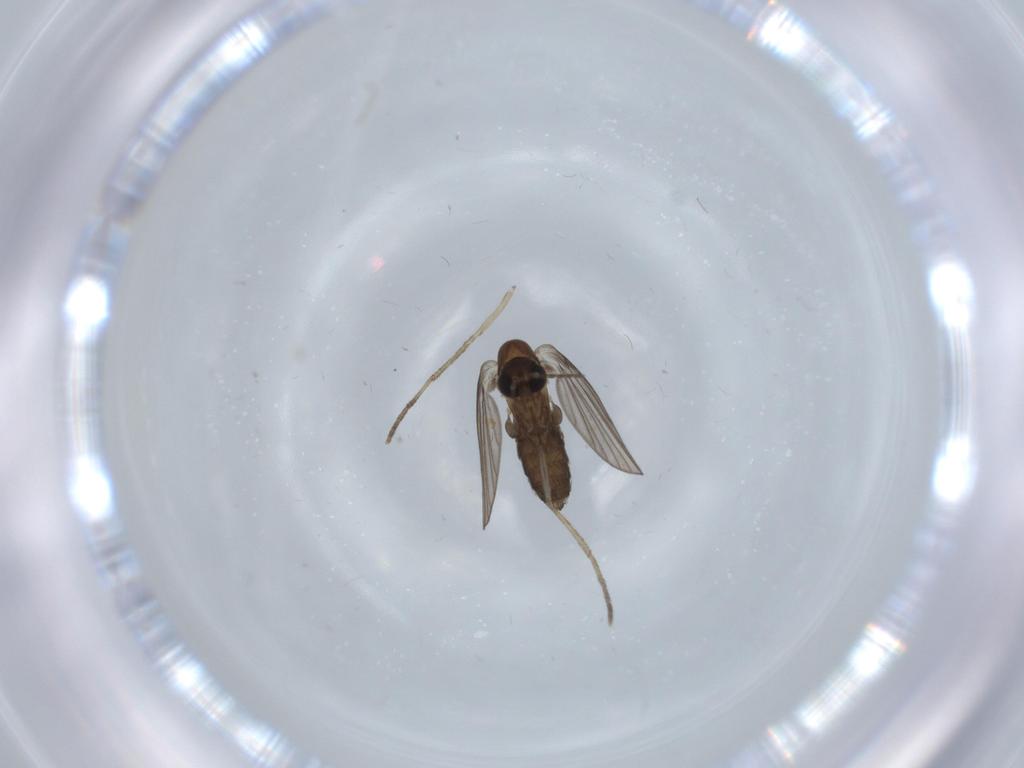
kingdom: Animalia
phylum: Arthropoda
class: Insecta
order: Diptera
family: Psychodidae
